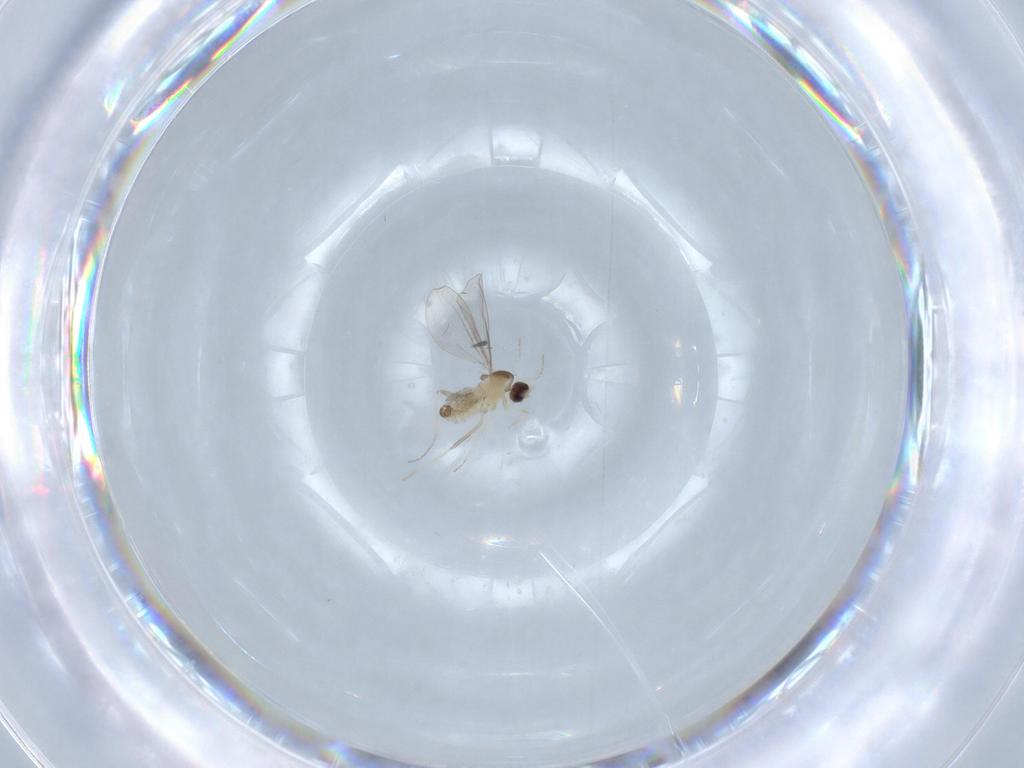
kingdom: Animalia
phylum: Arthropoda
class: Insecta
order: Diptera
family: Cecidomyiidae
